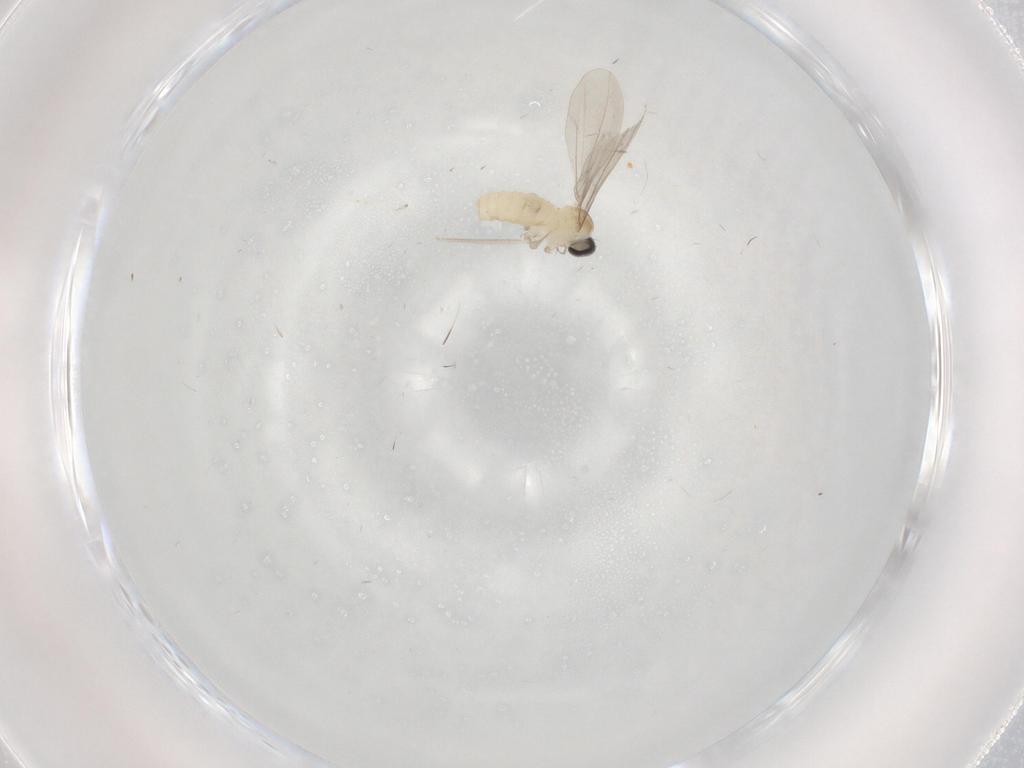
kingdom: Animalia
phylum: Arthropoda
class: Insecta
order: Diptera
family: Cecidomyiidae
